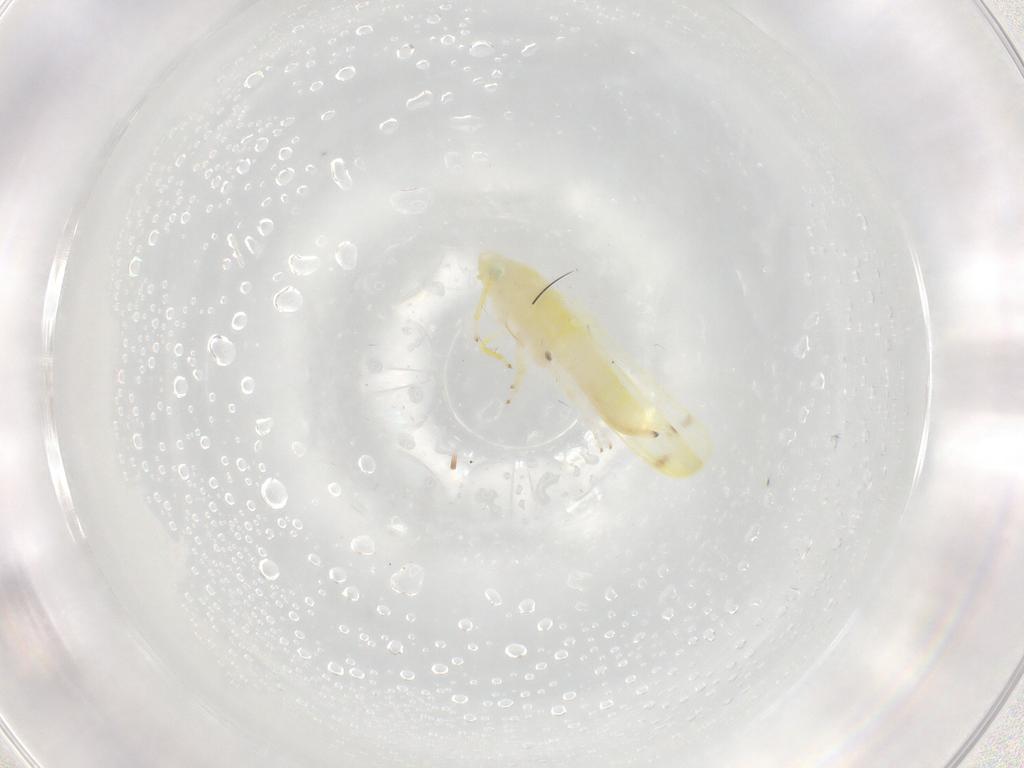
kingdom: Animalia
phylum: Arthropoda
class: Insecta
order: Hemiptera
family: Cicadellidae
